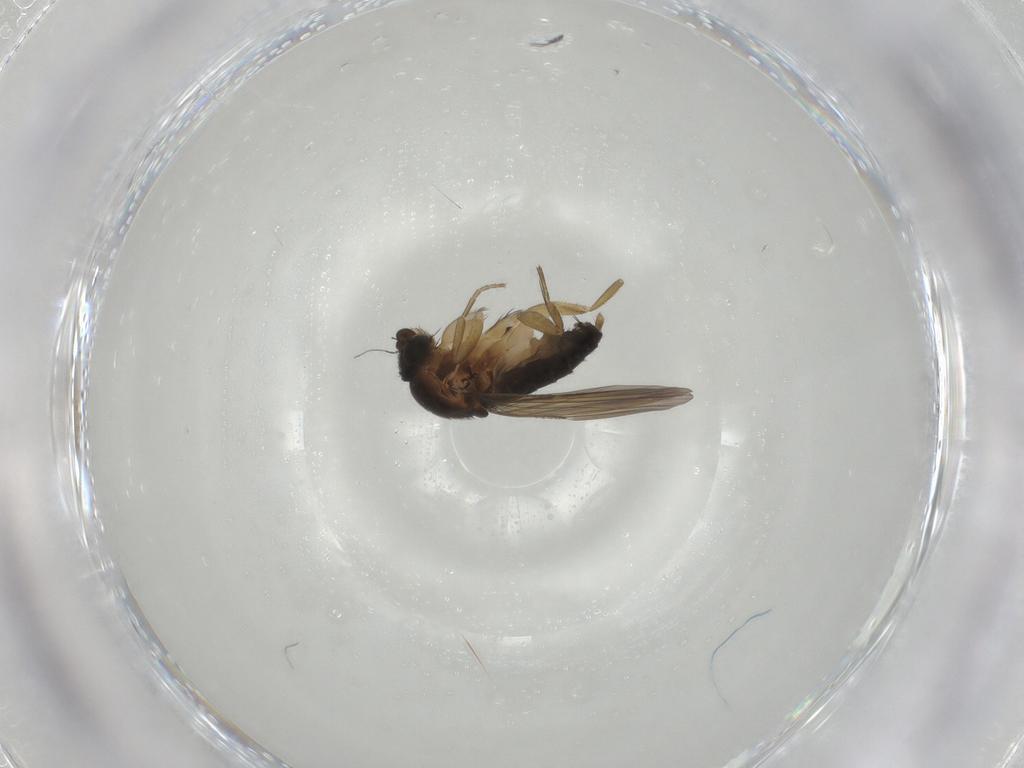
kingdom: Animalia
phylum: Arthropoda
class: Insecta
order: Diptera
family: Phoridae
